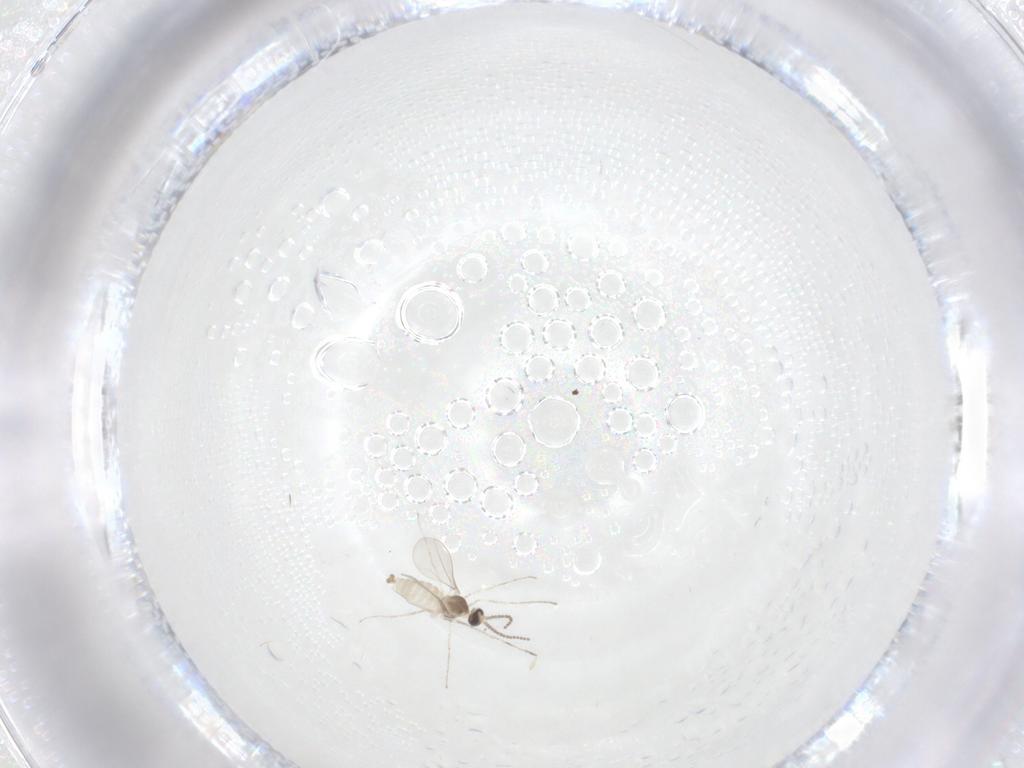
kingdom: Animalia
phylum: Arthropoda
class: Insecta
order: Diptera
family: Cecidomyiidae
